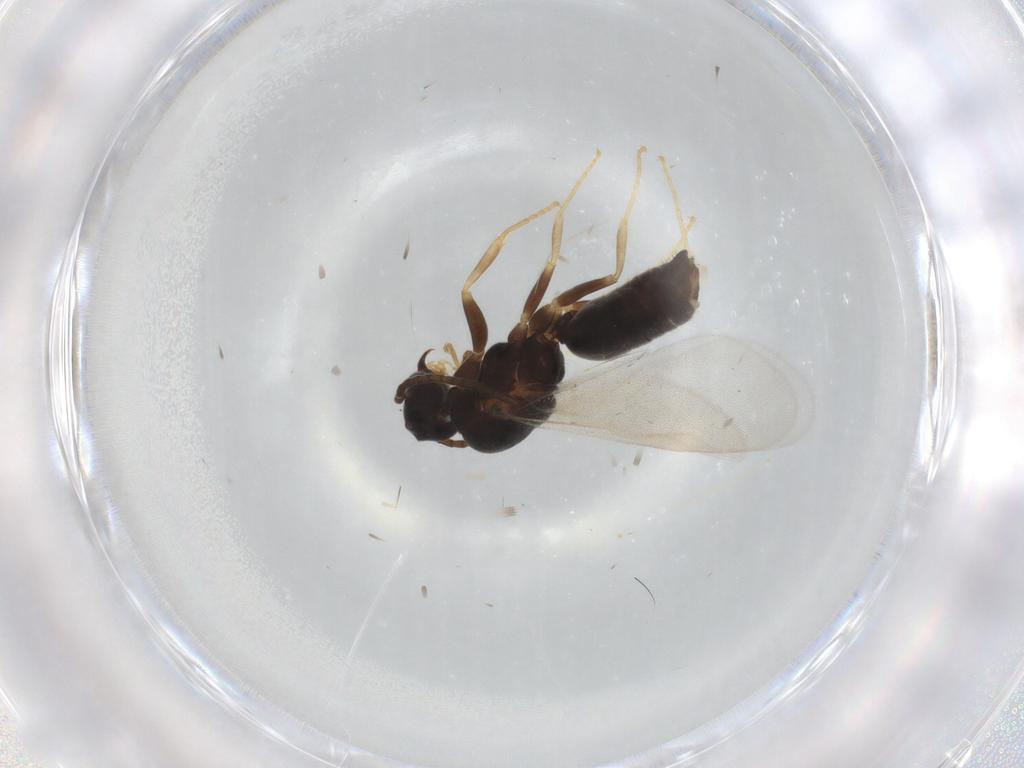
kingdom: Animalia
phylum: Arthropoda
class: Insecta
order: Hymenoptera
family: Formicidae
